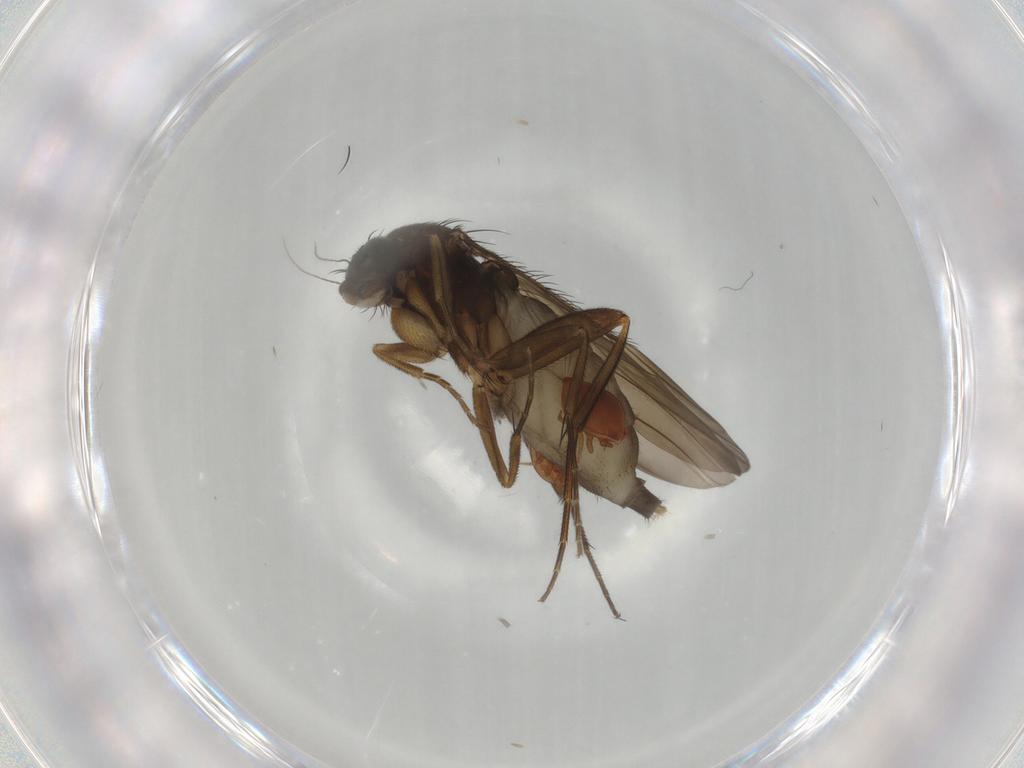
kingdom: Animalia
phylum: Arthropoda
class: Insecta
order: Diptera
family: Phoridae
